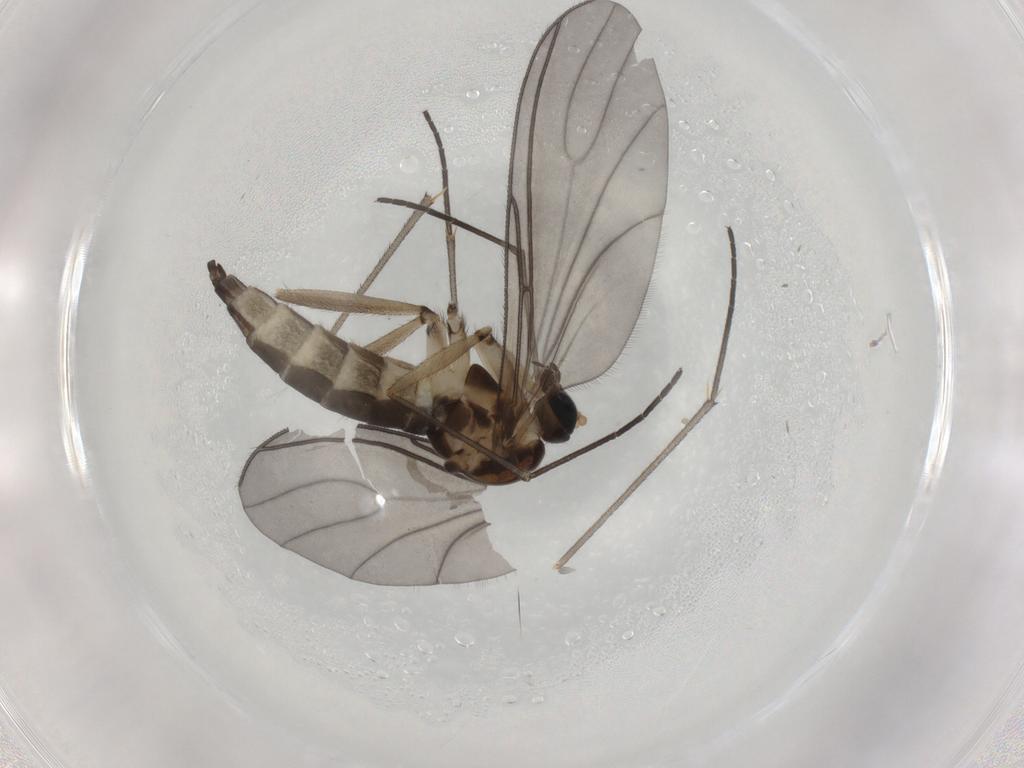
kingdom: Animalia
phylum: Arthropoda
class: Insecta
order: Diptera
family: Sciaridae
